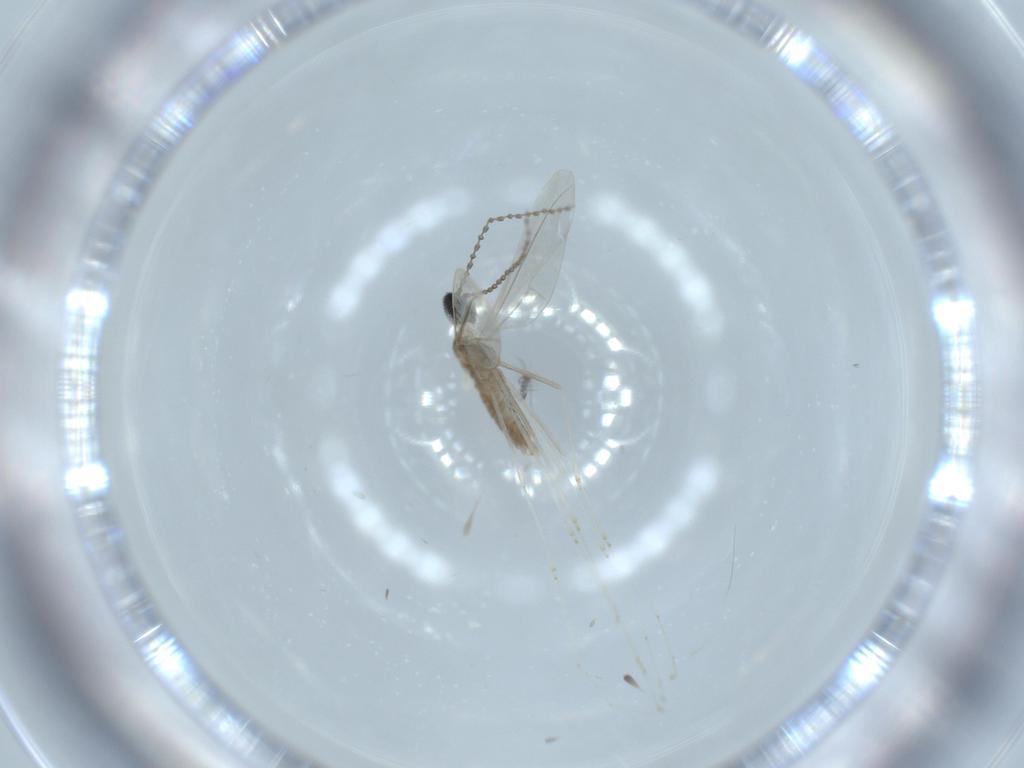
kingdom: Animalia
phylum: Arthropoda
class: Insecta
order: Diptera
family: Cecidomyiidae
